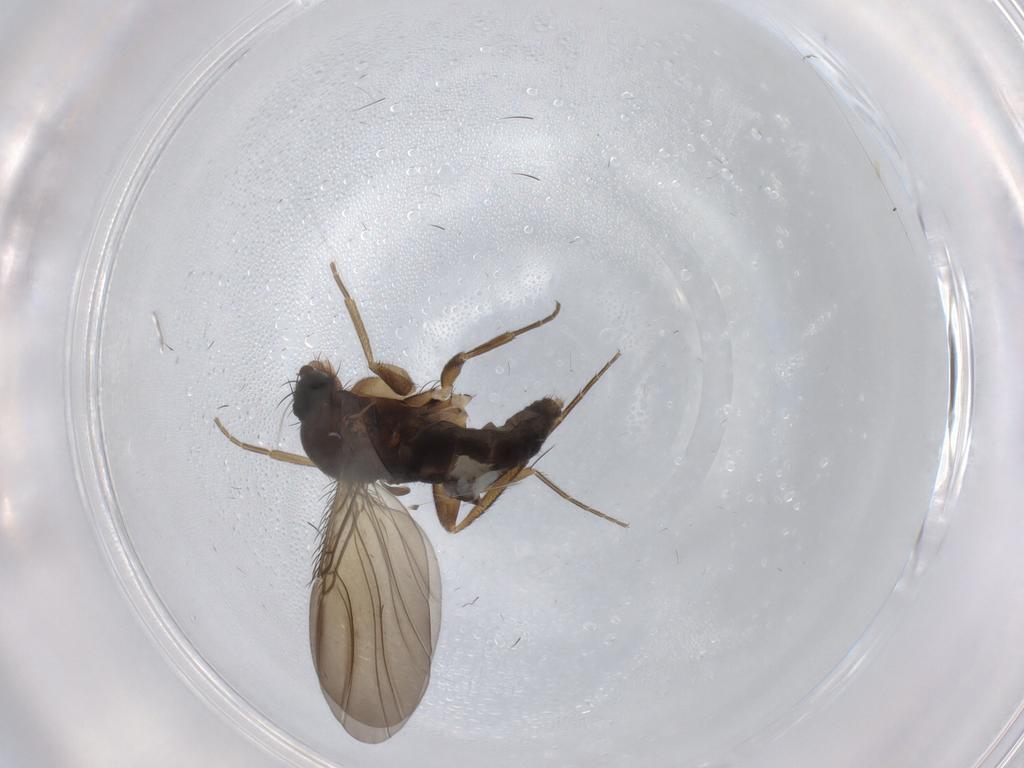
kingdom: Animalia
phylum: Arthropoda
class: Insecta
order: Diptera
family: Phoridae
